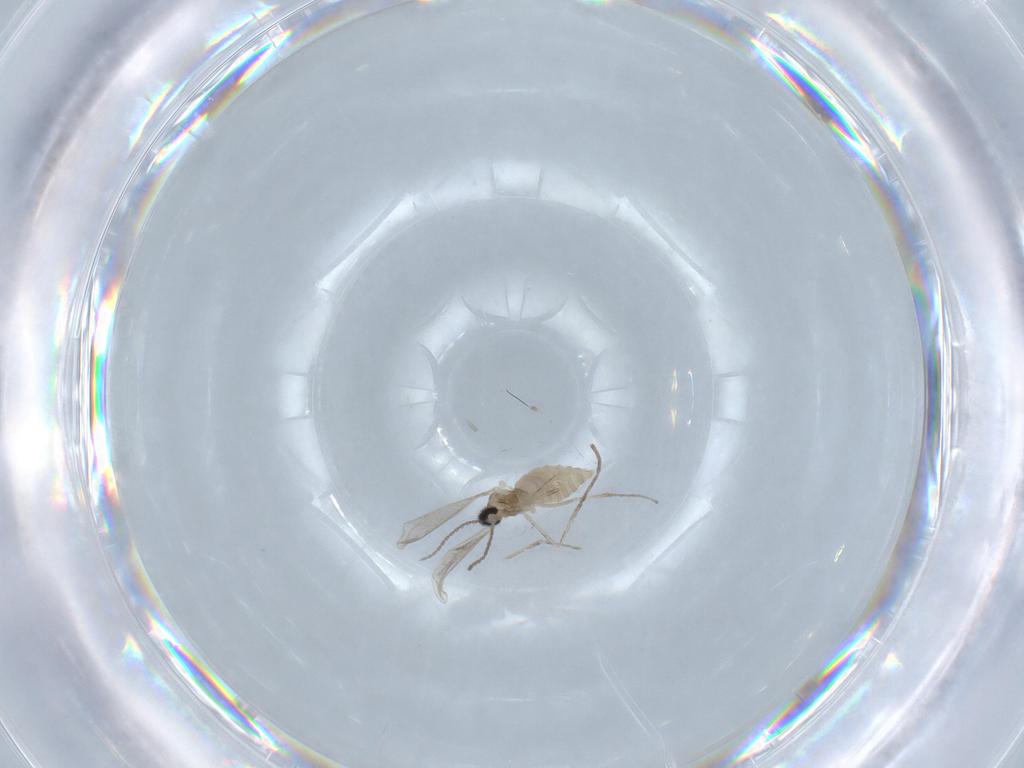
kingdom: Animalia
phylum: Arthropoda
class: Insecta
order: Diptera
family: Cecidomyiidae
